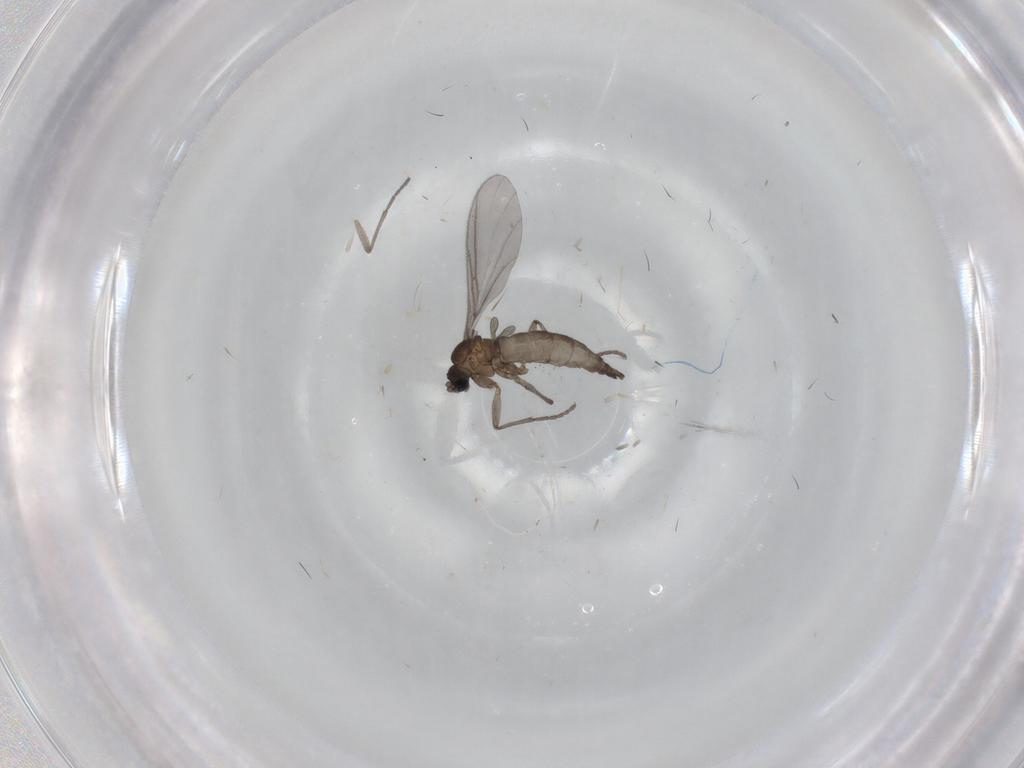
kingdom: Animalia
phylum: Arthropoda
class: Insecta
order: Diptera
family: Sciaridae
